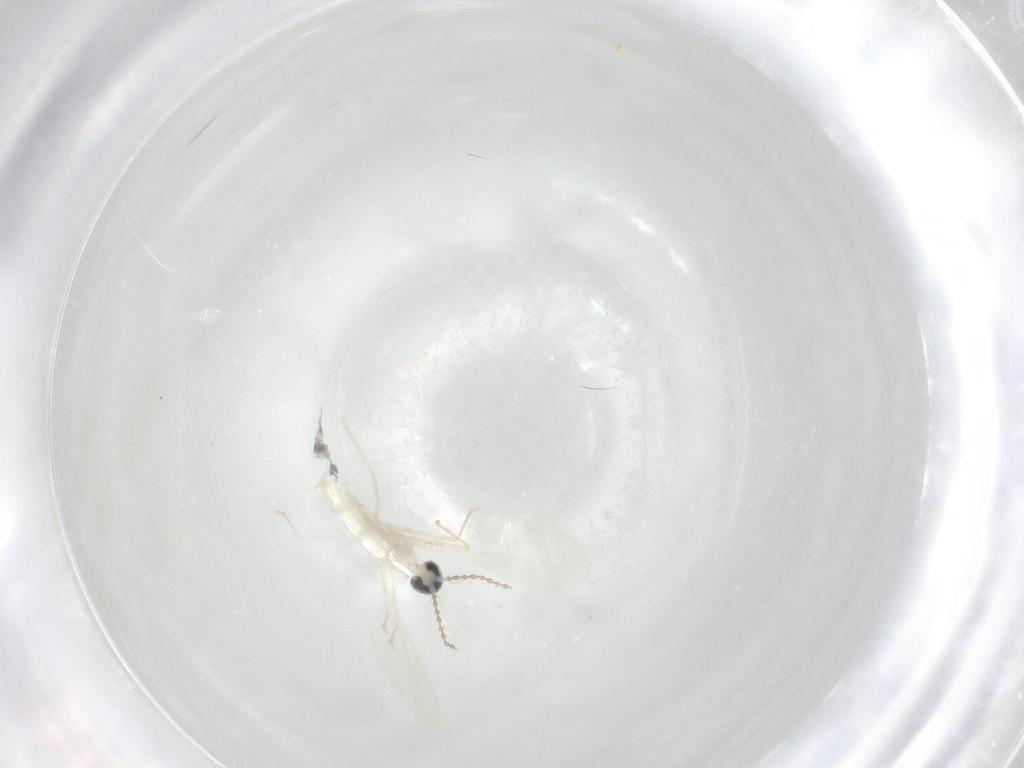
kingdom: Animalia
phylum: Arthropoda
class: Insecta
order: Diptera
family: Cecidomyiidae
